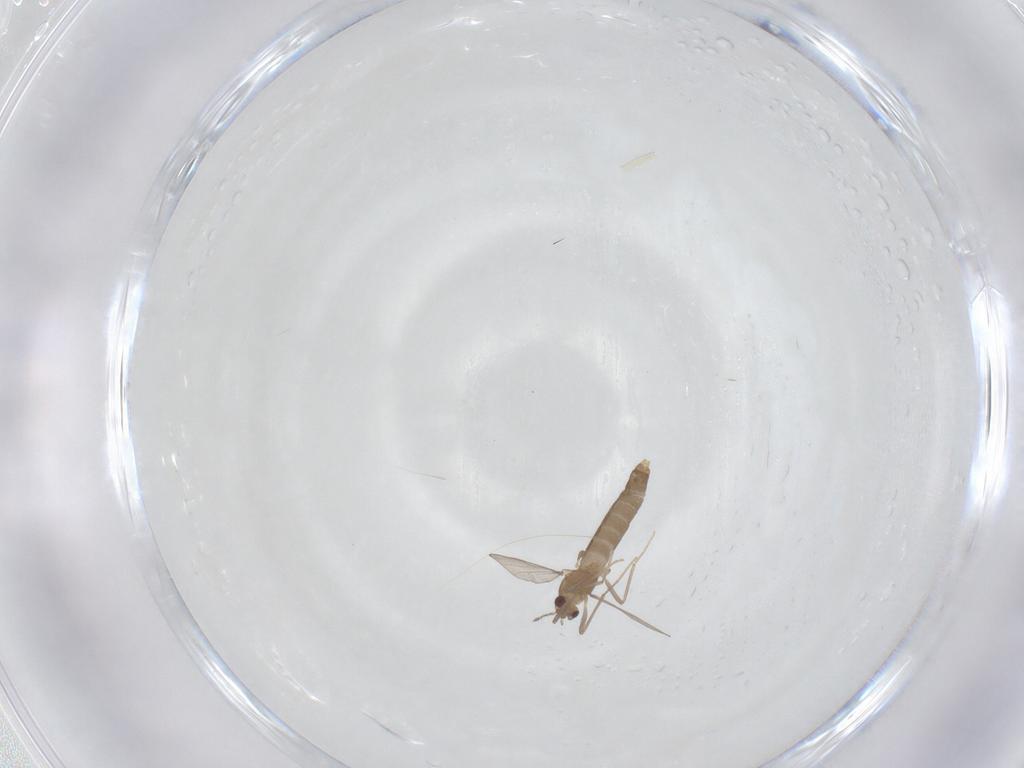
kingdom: Animalia
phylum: Arthropoda
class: Insecta
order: Diptera
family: Chironomidae
